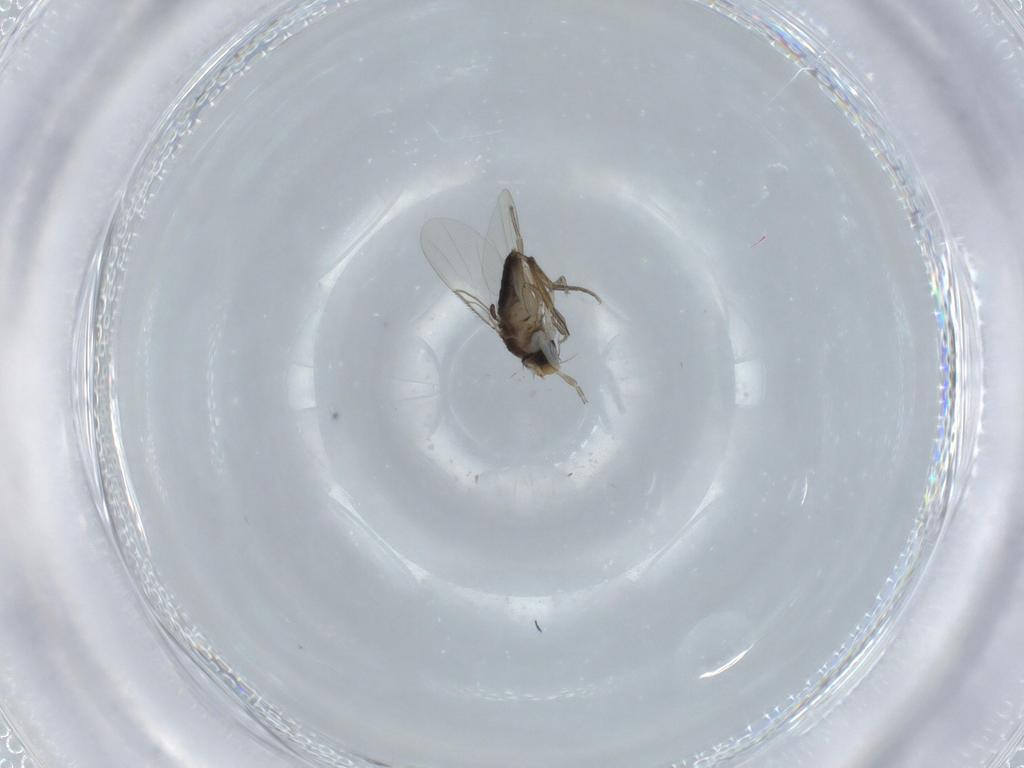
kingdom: Animalia
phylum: Arthropoda
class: Insecta
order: Diptera
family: Phoridae
